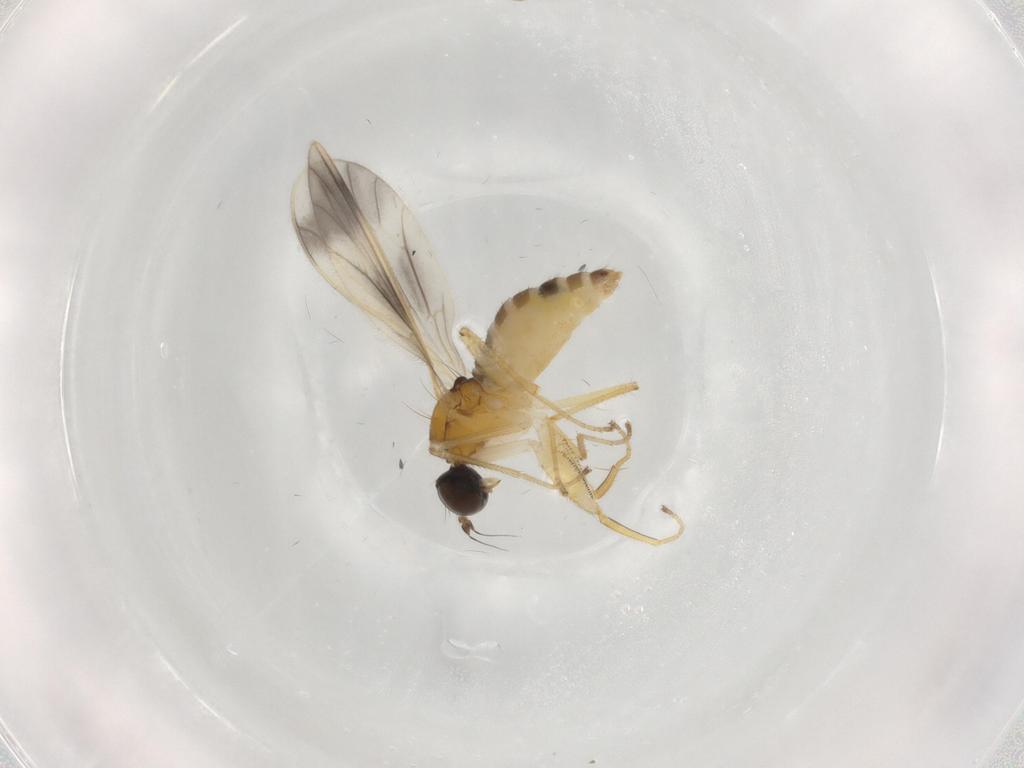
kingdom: Animalia
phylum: Arthropoda
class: Insecta
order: Diptera
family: Empididae
